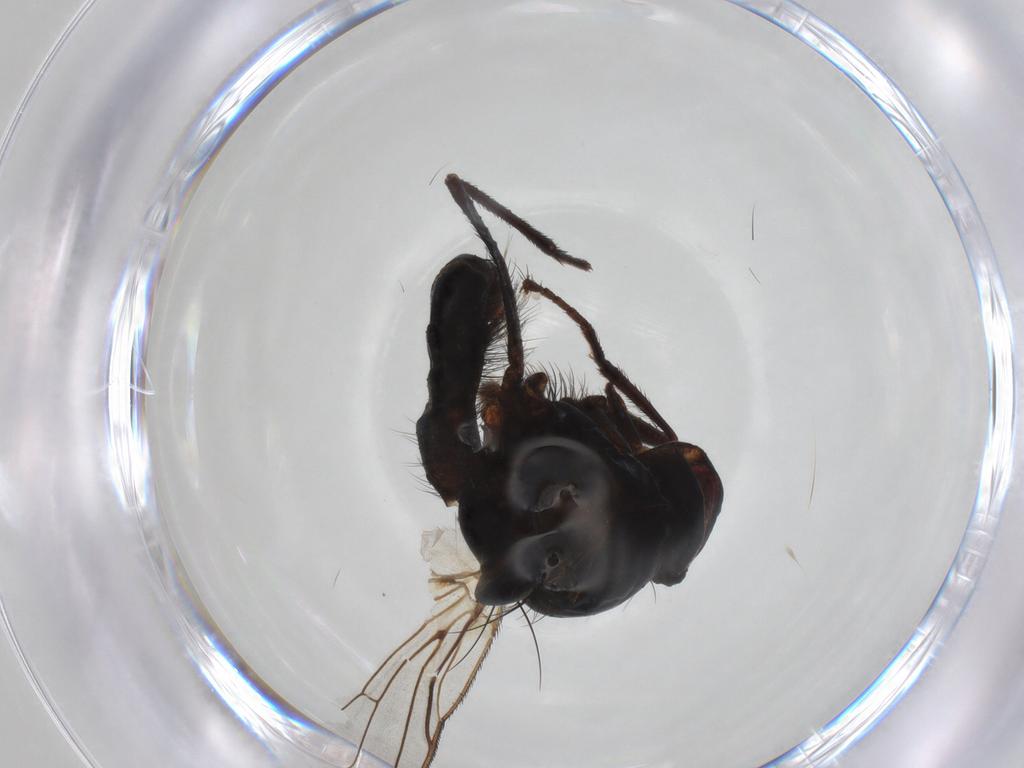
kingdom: Animalia
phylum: Arthropoda
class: Insecta
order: Diptera
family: Anthomyiidae
